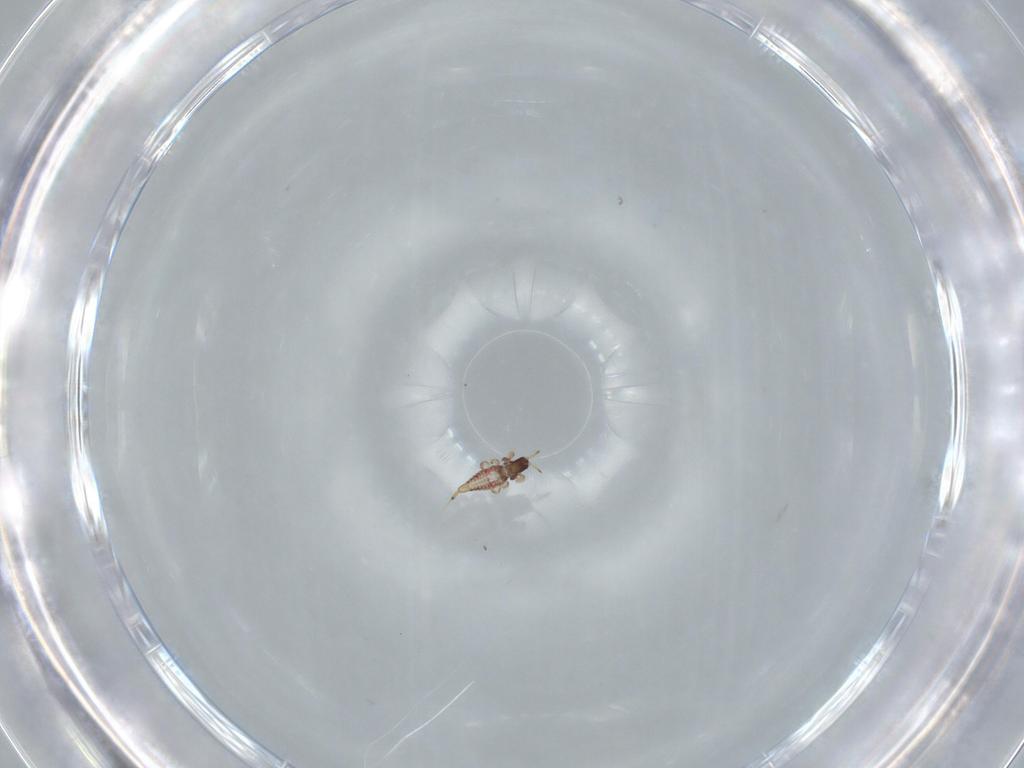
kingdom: Animalia
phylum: Arthropoda
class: Insecta
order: Thysanoptera
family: Phlaeothripidae
